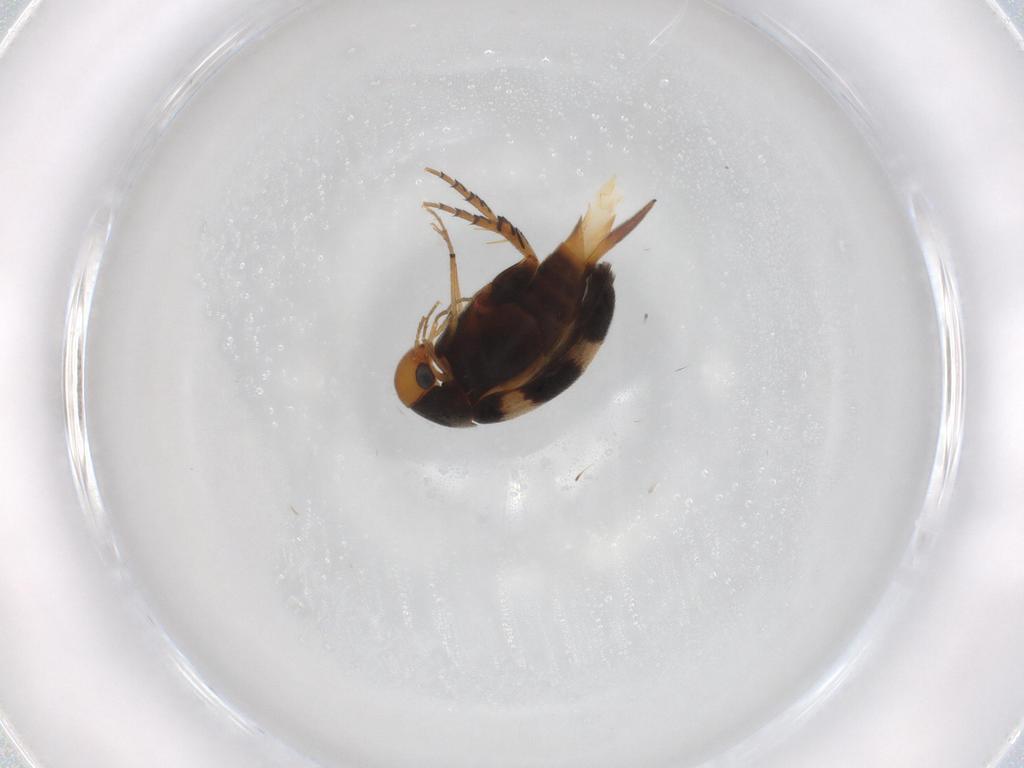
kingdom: Animalia
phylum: Arthropoda
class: Insecta
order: Coleoptera
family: Mordellidae
